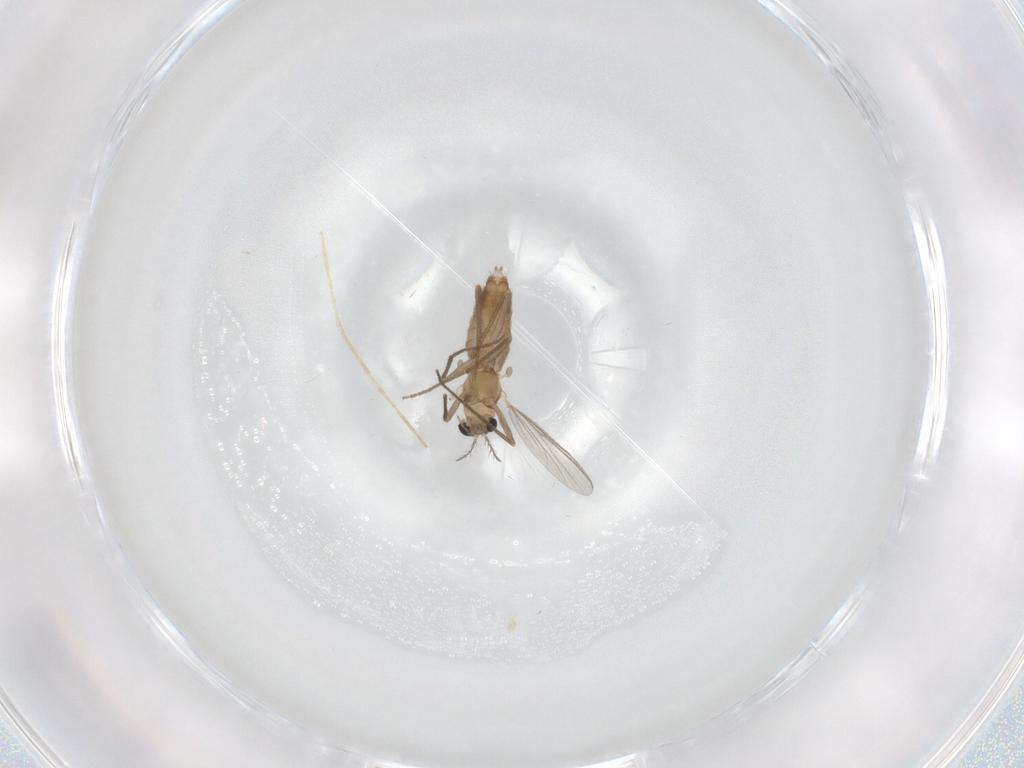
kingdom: Animalia
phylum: Arthropoda
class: Insecta
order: Diptera
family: Chironomidae
